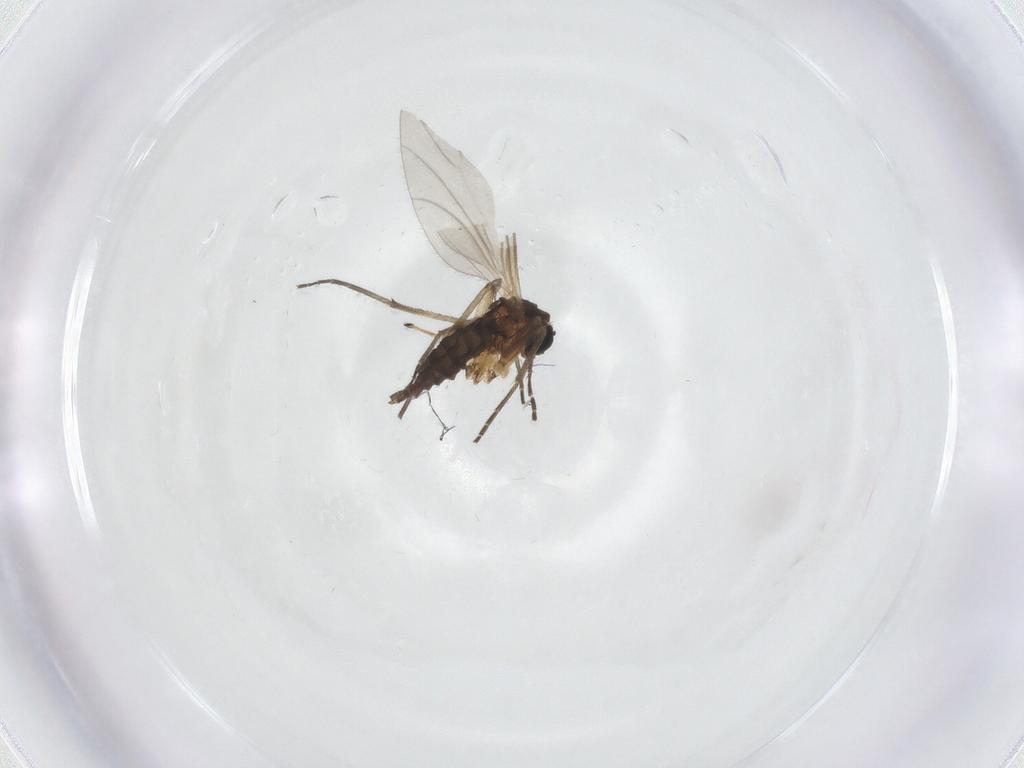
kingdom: Animalia
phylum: Arthropoda
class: Insecta
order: Diptera
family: Sciaridae
